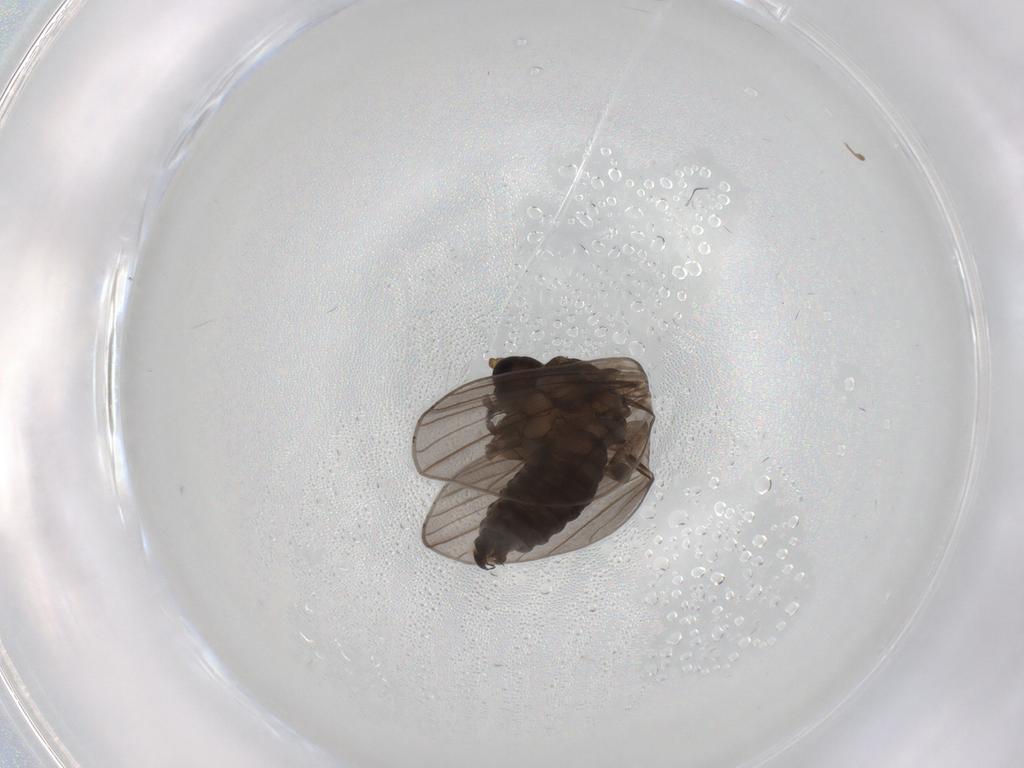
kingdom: Animalia
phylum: Arthropoda
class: Insecta
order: Diptera
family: Psychodidae
